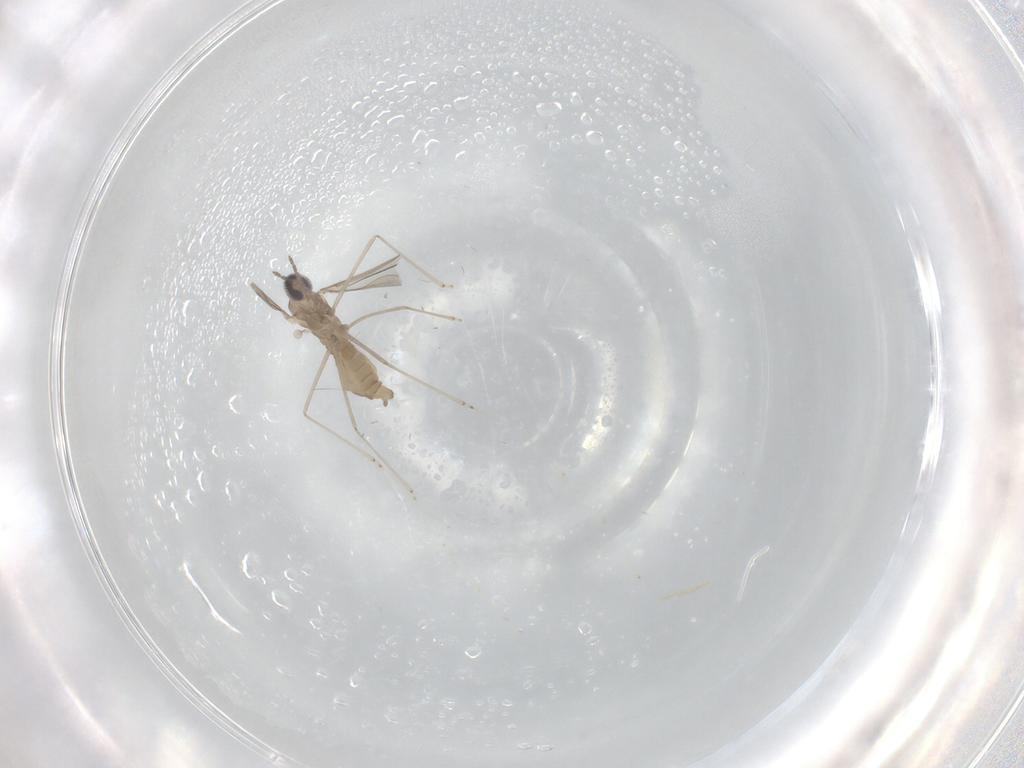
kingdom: Animalia
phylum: Arthropoda
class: Insecta
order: Diptera
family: Cecidomyiidae
